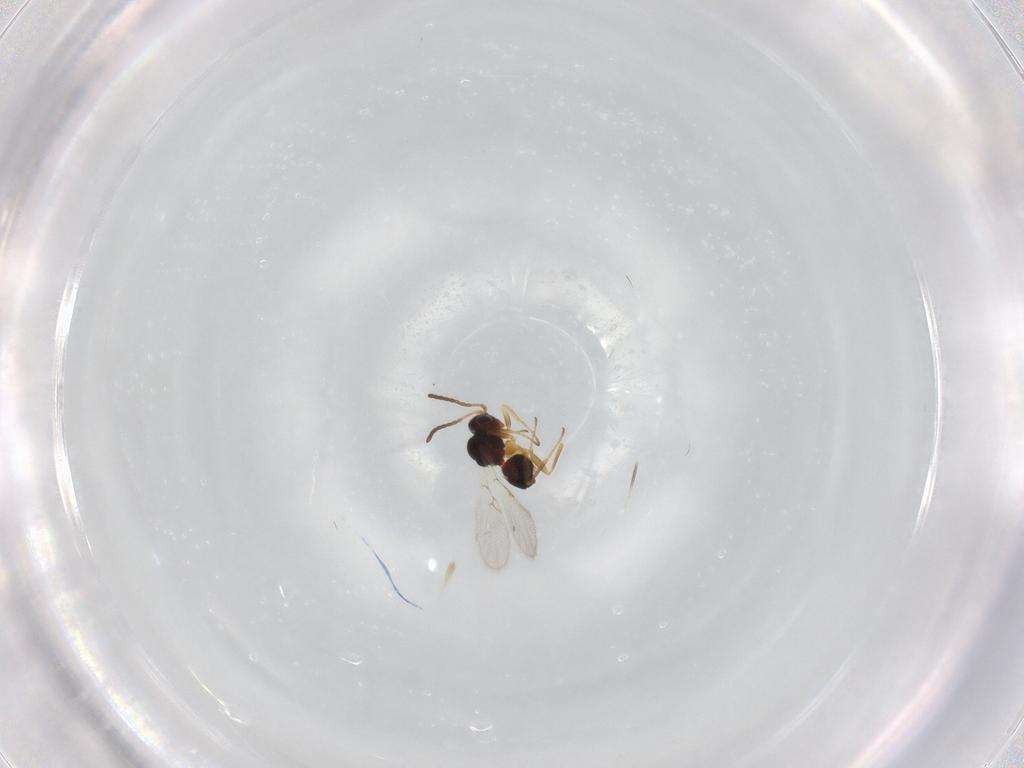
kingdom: Animalia
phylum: Arthropoda
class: Insecta
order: Hymenoptera
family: Figitidae
